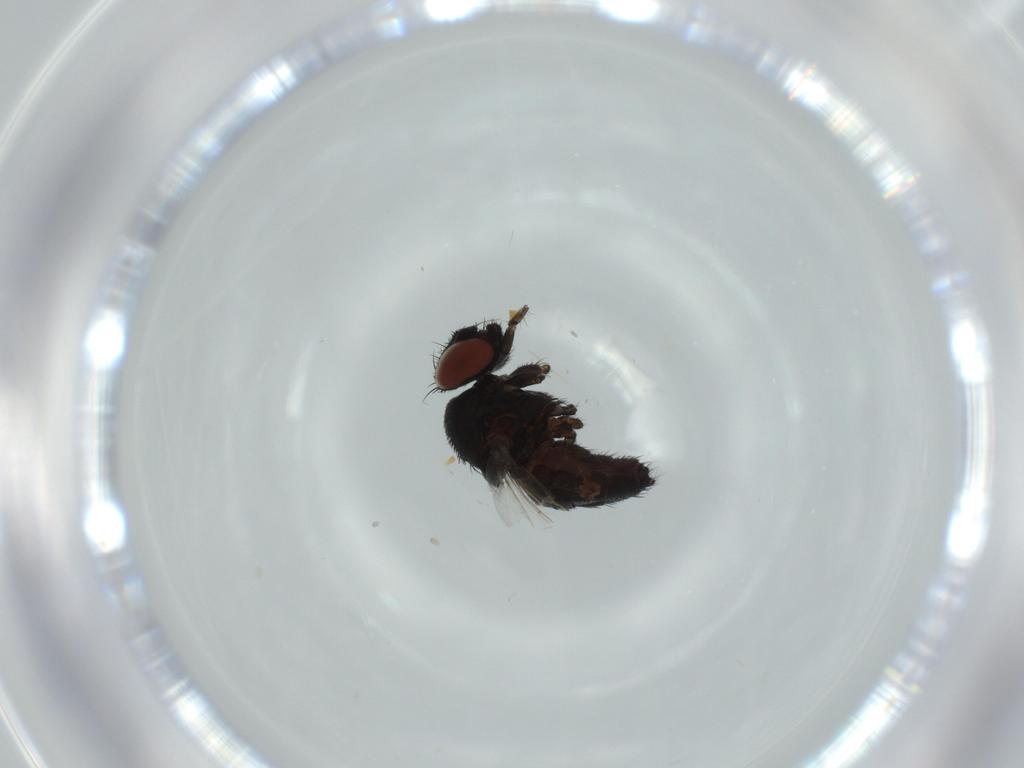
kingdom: Animalia
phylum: Arthropoda
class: Insecta
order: Diptera
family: Milichiidae
